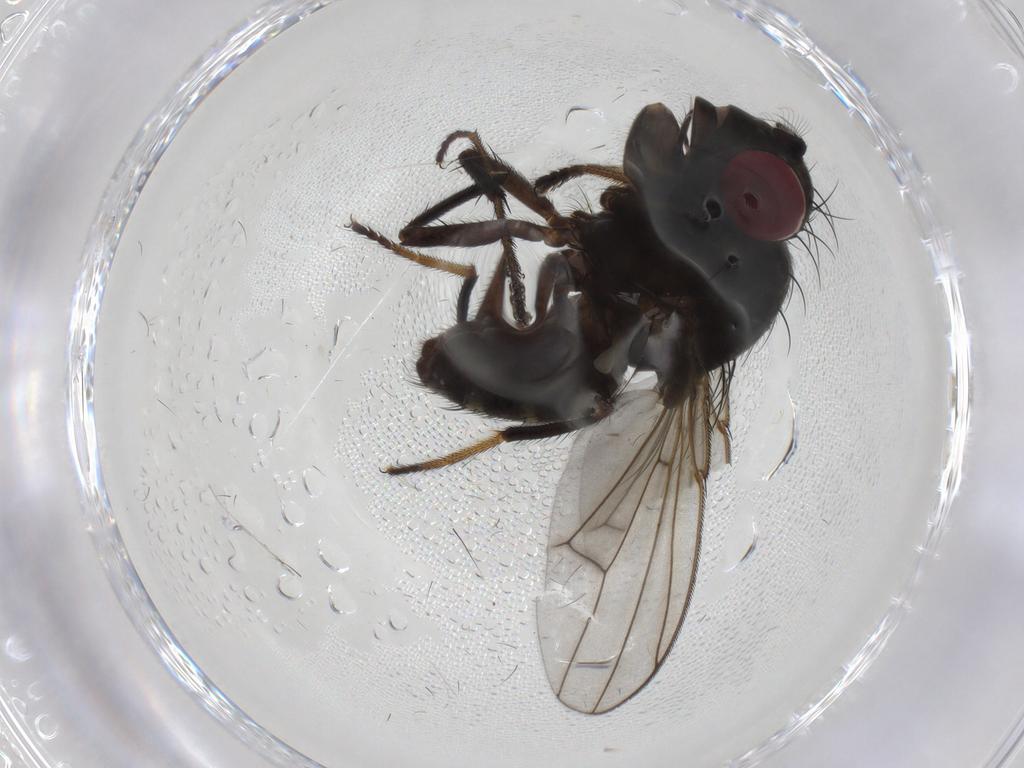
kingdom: Animalia
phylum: Arthropoda
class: Insecta
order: Diptera
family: Ephydridae
